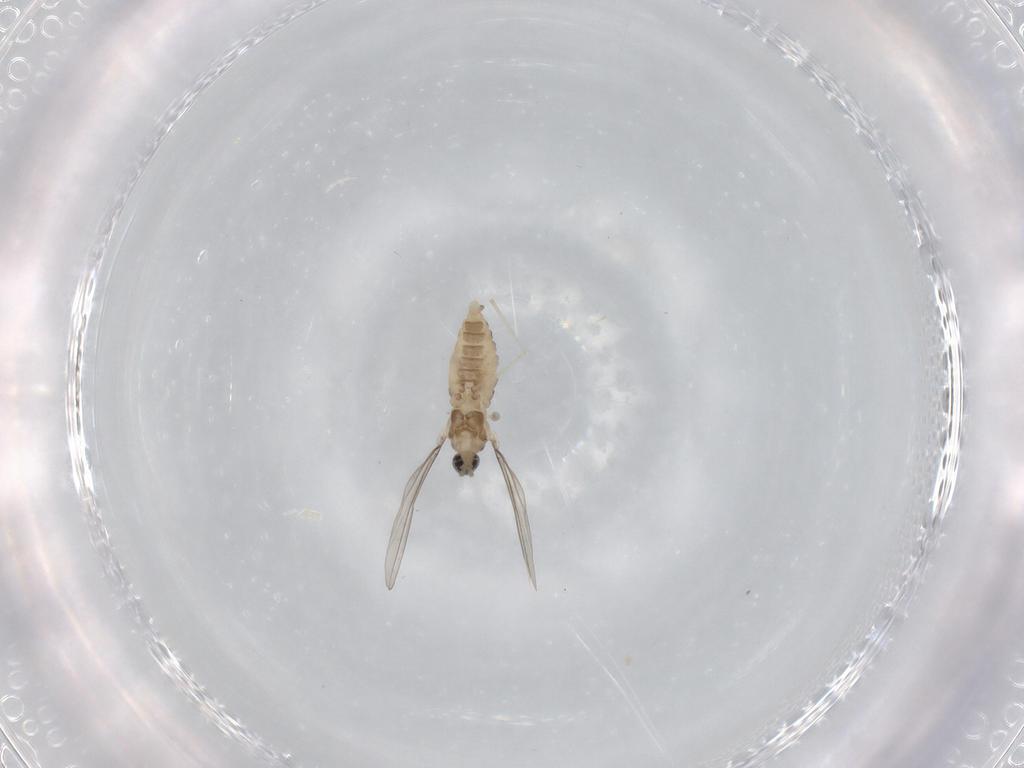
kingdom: Animalia
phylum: Arthropoda
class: Insecta
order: Diptera
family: Cecidomyiidae
